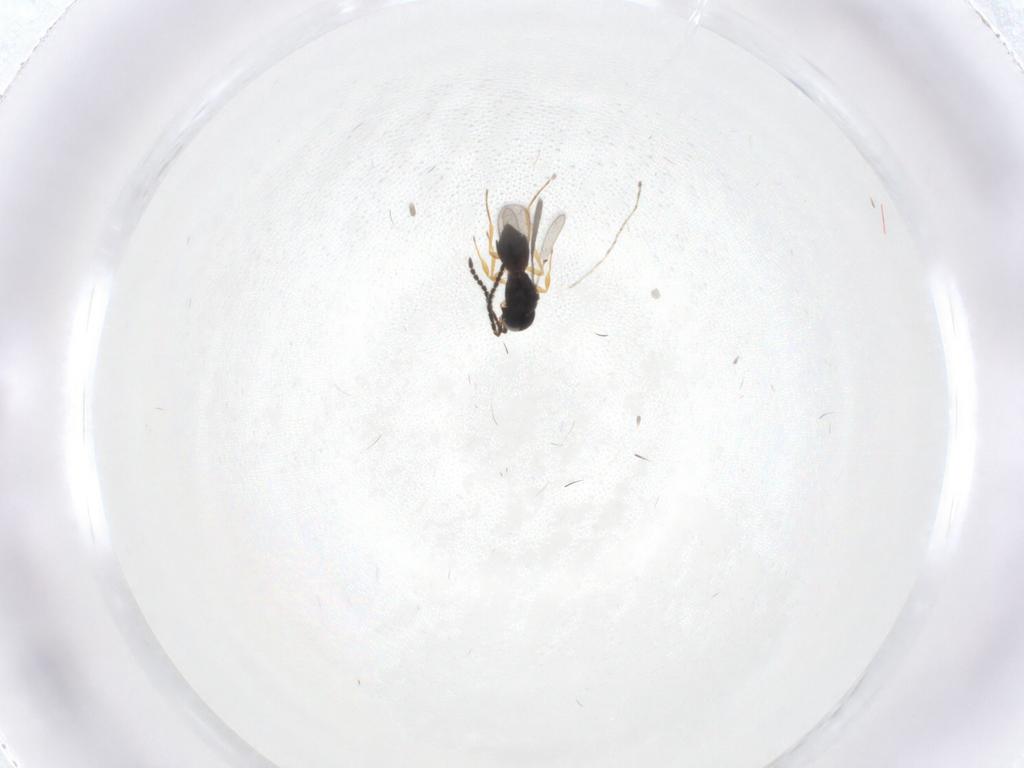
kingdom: Animalia
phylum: Arthropoda
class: Insecta
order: Hymenoptera
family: Scelionidae
